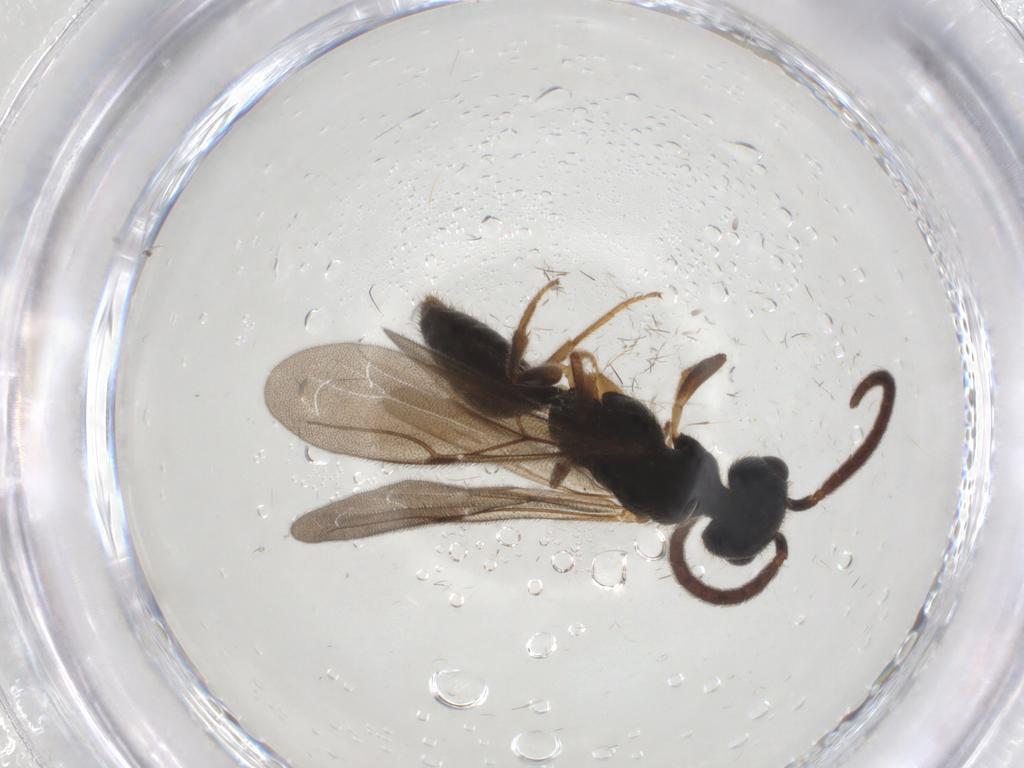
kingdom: Animalia
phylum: Arthropoda
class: Insecta
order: Hymenoptera
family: Bethylidae
